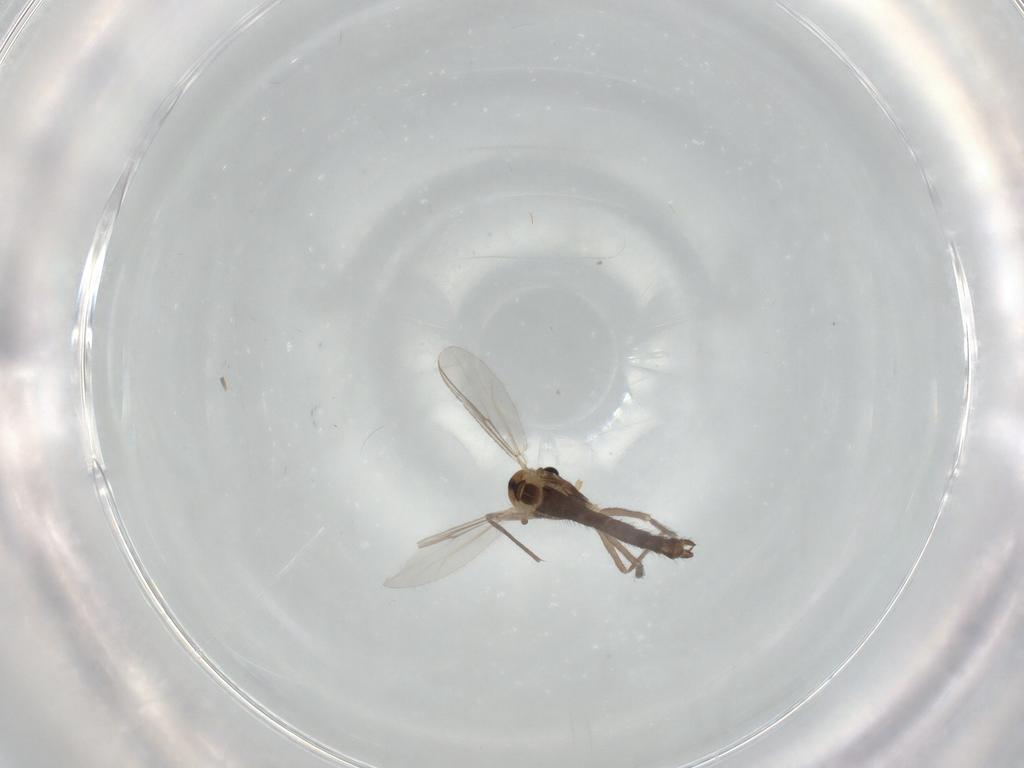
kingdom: Animalia
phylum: Arthropoda
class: Insecta
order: Diptera
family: Chironomidae
